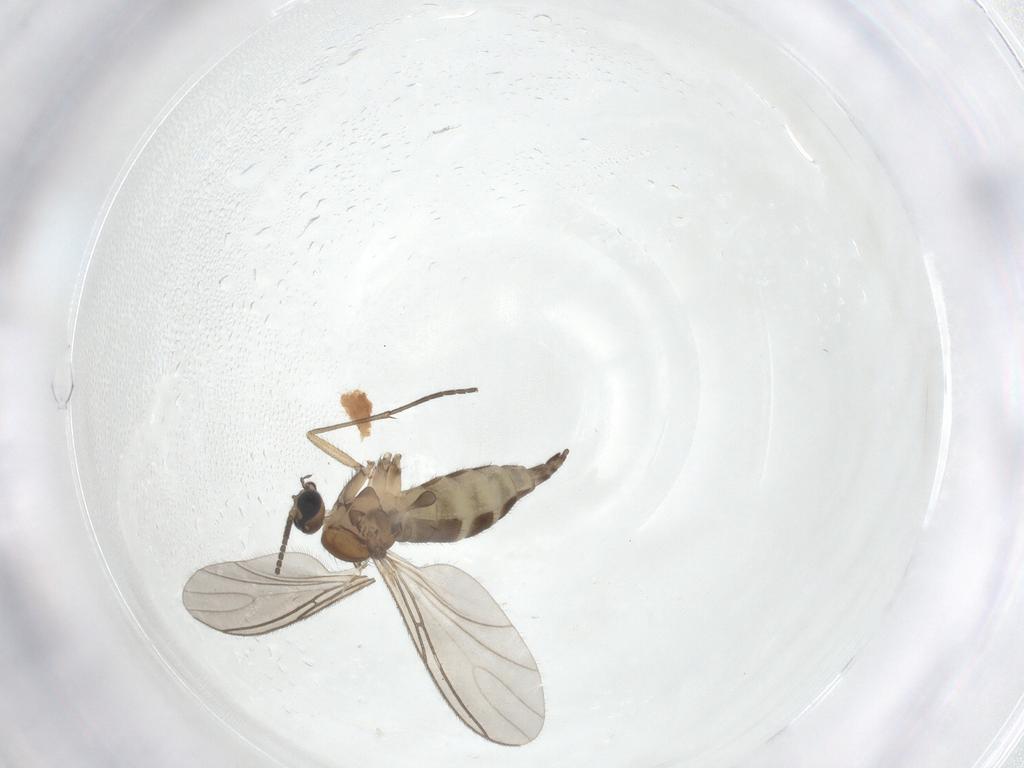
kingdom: Animalia
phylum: Arthropoda
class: Insecta
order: Diptera
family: Sciaridae
